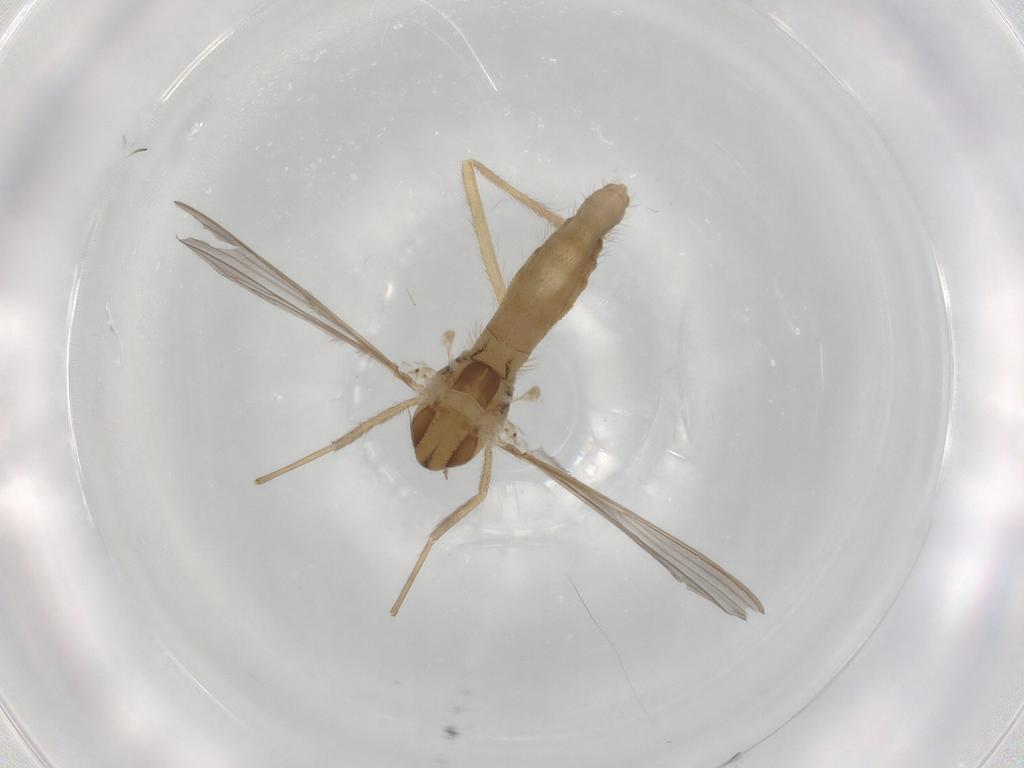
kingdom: Animalia
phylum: Arthropoda
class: Insecta
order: Diptera
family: Chironomidae
